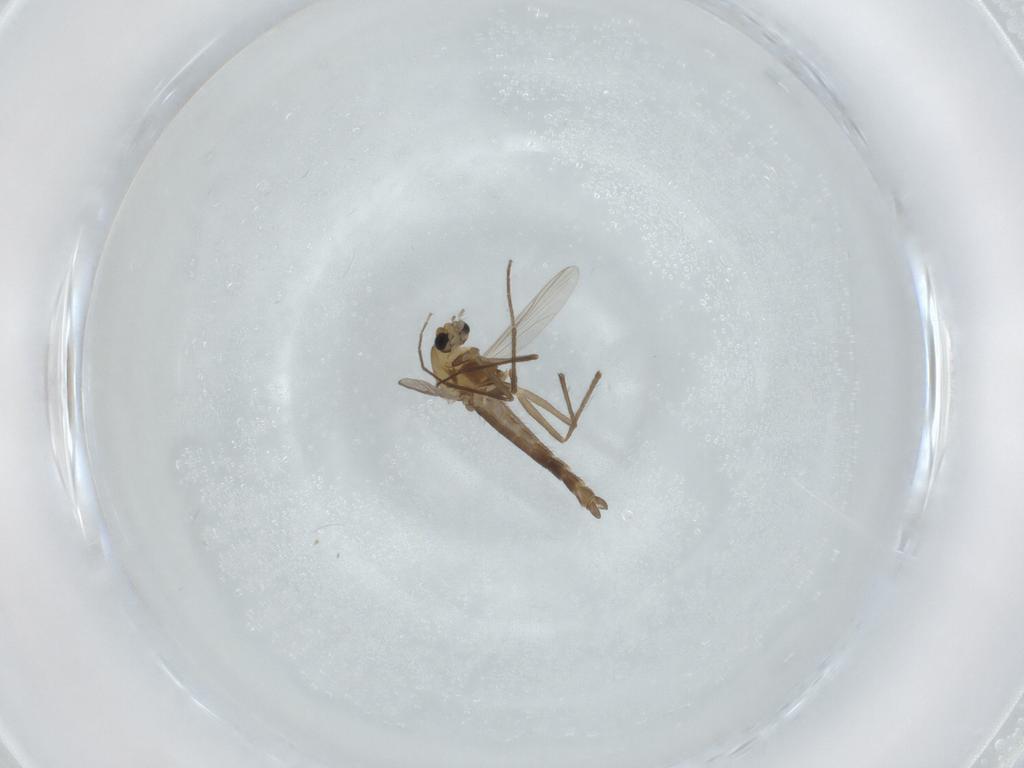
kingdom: Animalia
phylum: Arthropoda
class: Insecta
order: Diptera
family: Chironomidae
